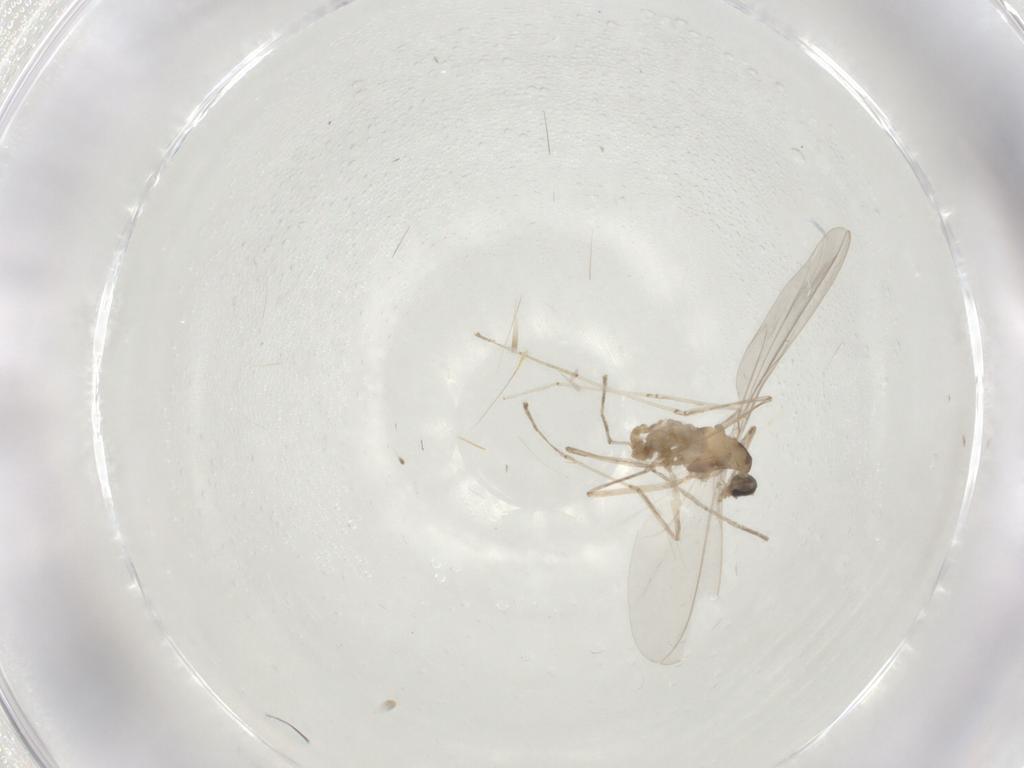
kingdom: Animalia
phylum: Arthropoda
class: Insecta
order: Diptera
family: Cecidomyiidae
